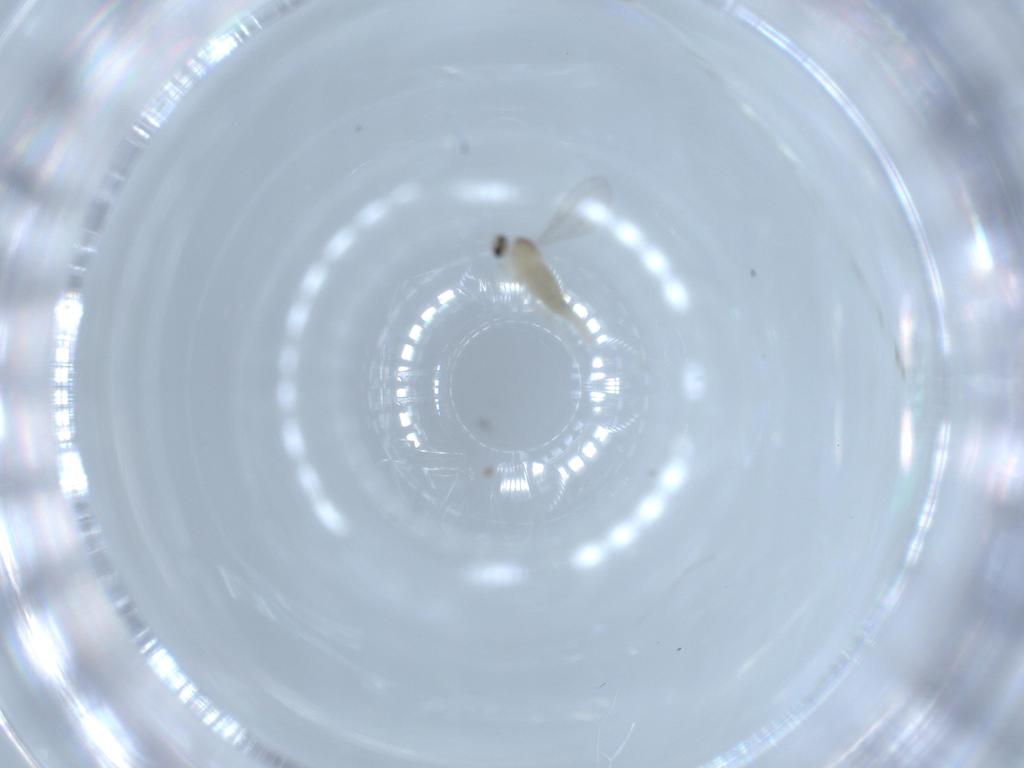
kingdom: Animalia
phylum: Arthropoda
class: Insecta
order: Diptera
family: Cecidomyiidae
